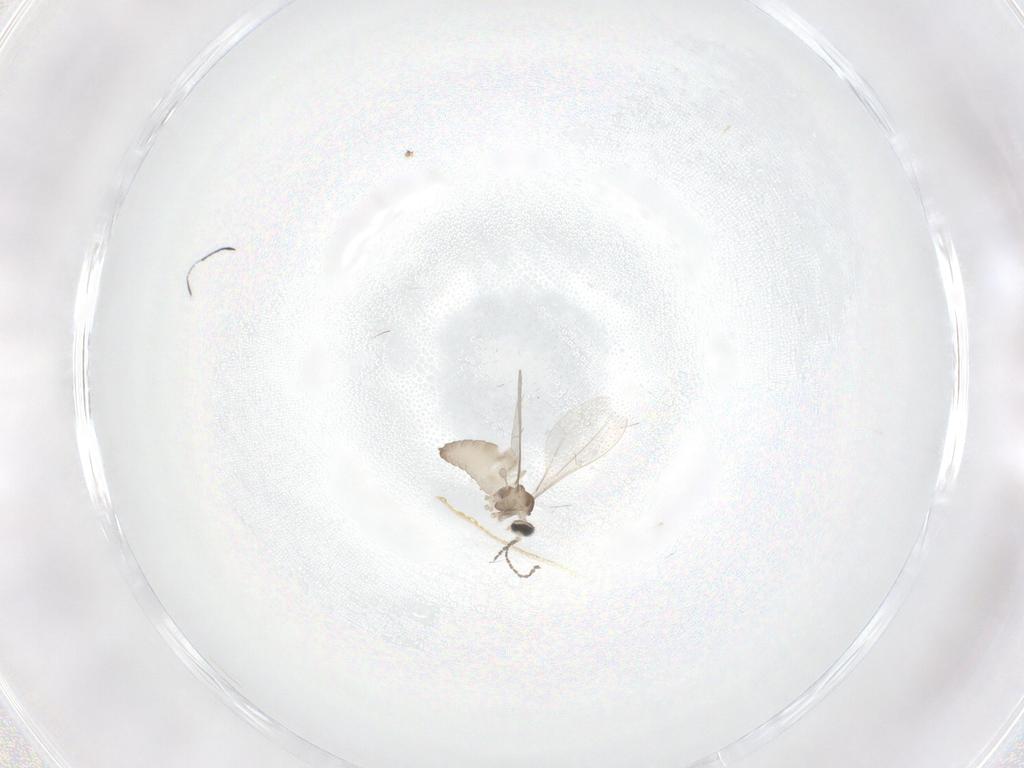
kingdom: Animalia
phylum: Arthropoda
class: Insecta
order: Diptera
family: Cecidomyiidae
